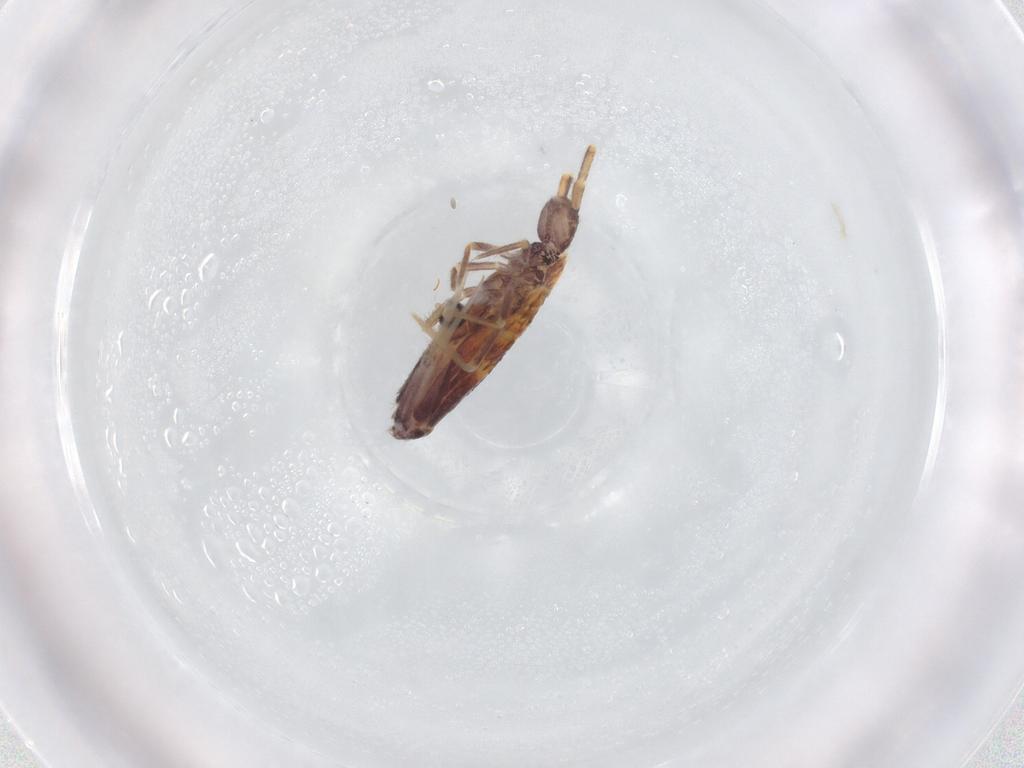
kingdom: Animalia
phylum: Arthropoda
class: Collembola
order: Entomobryomorpha
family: Entomobryidae
